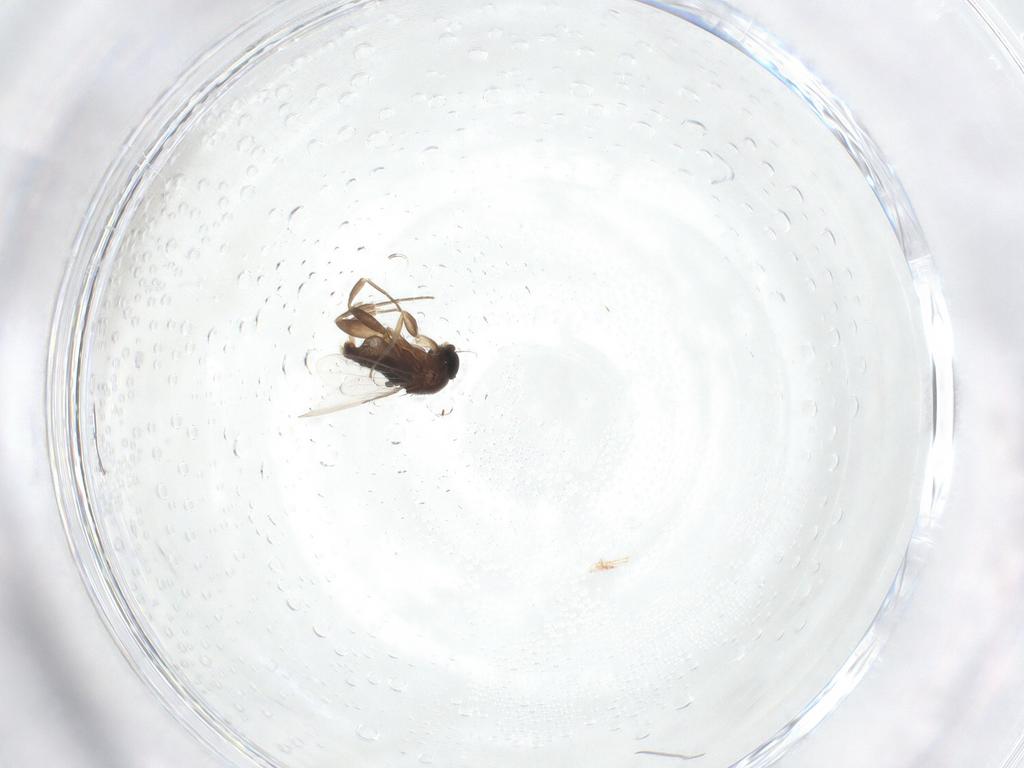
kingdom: Animalia
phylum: Arthropoda
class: Insecta
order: Diptera
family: Phoridae
